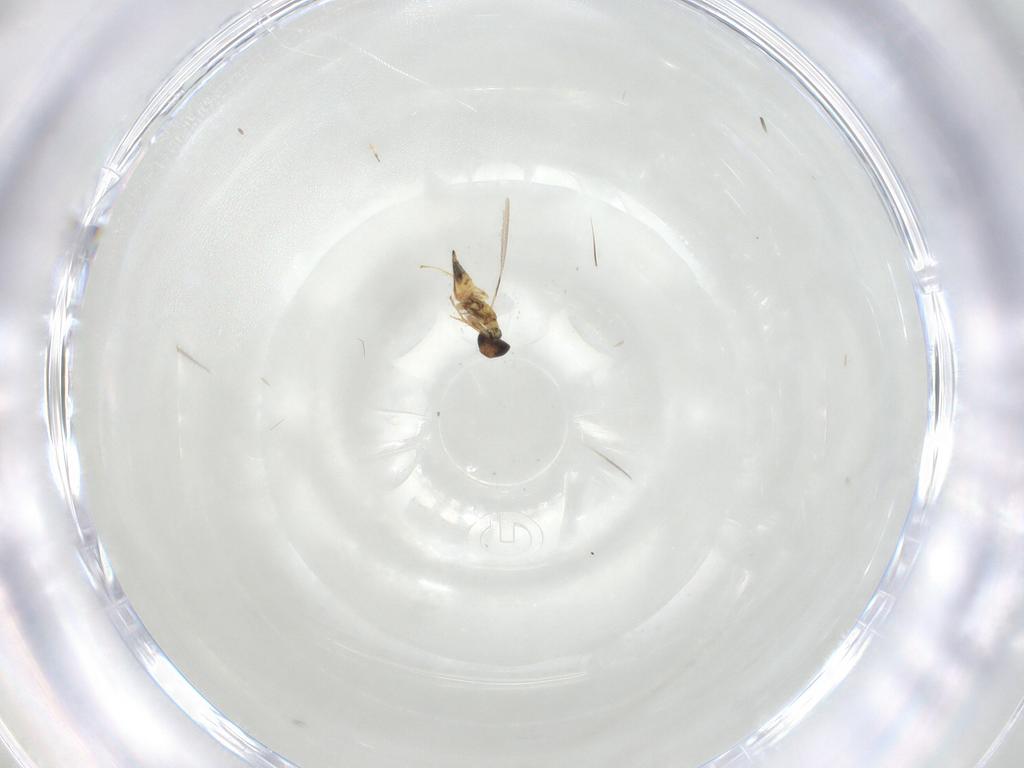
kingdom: Animalia
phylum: Arthropoda
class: Insecta
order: Hymenoptera
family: Mymaridae
